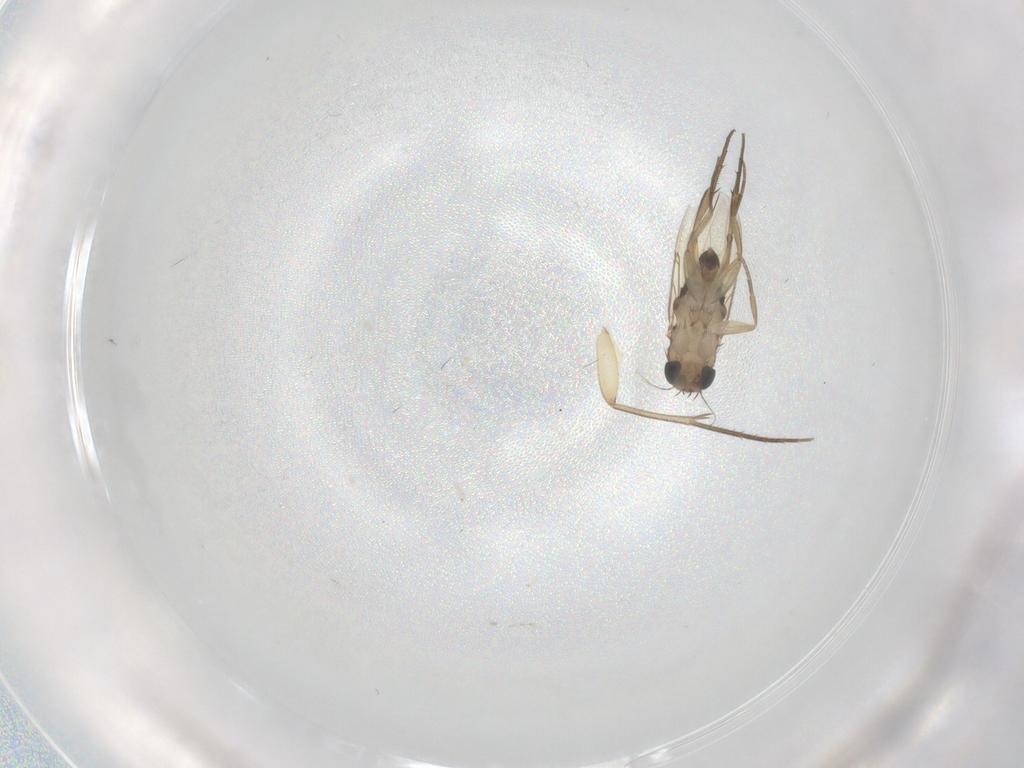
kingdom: Animalia
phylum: Arthropoda
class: Insecta
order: Diptera
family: Phoridae
